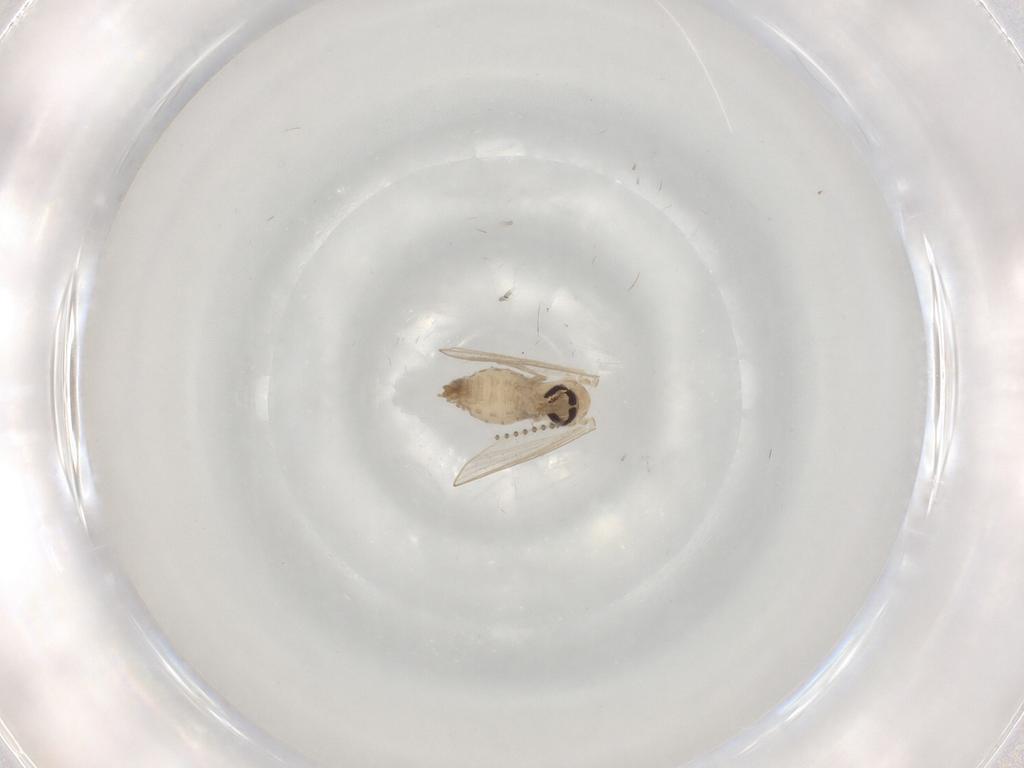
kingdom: Animalia
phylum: Arthropoda
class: Insecta
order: Diptera
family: Psychodidae
